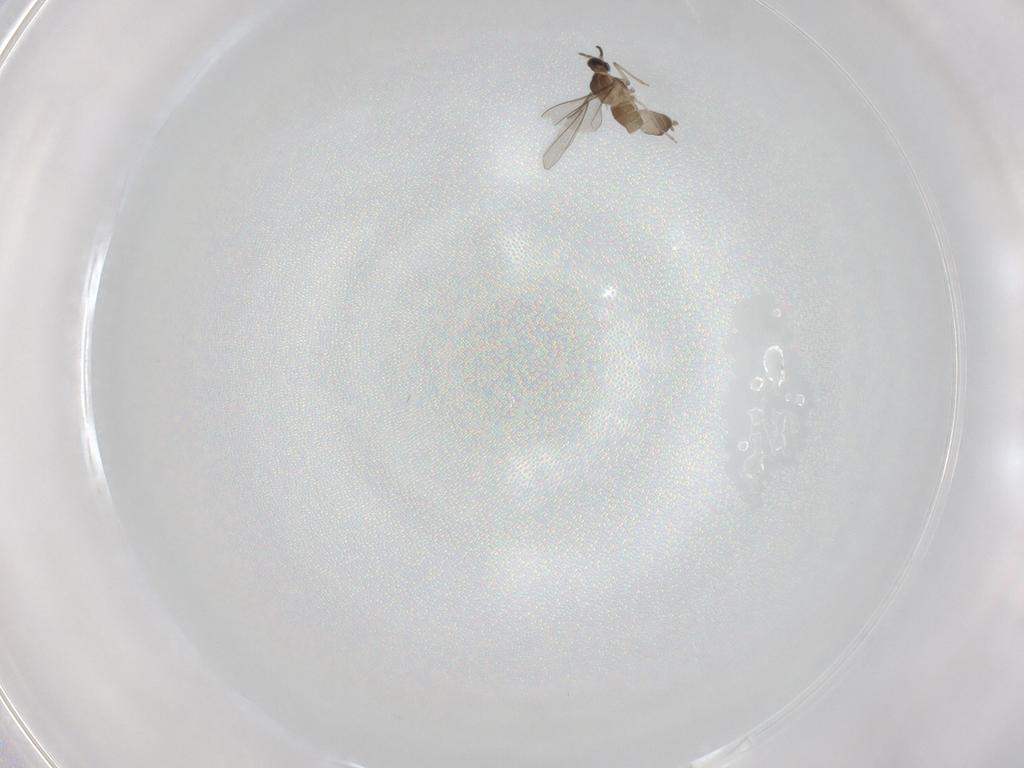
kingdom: Animalia
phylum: Arthropoda
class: Insecta
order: Diptera
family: Cecidomyiidae
